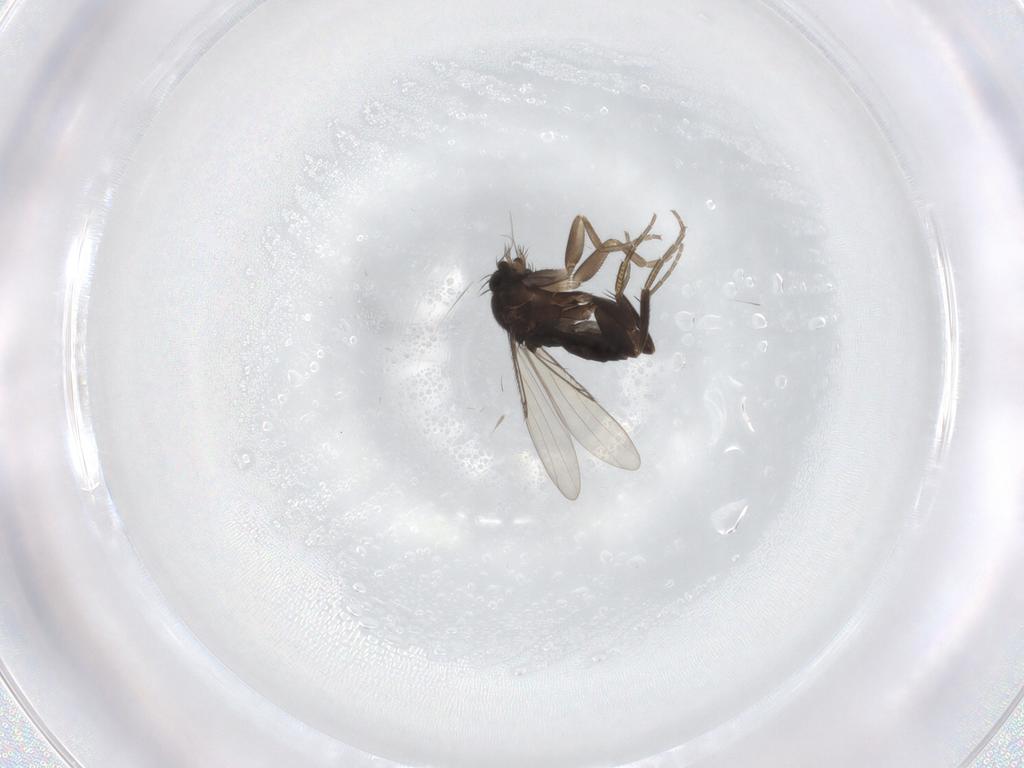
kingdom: Animalia
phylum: Arthropoda
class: Insecta
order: Diptera
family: Phoridae
